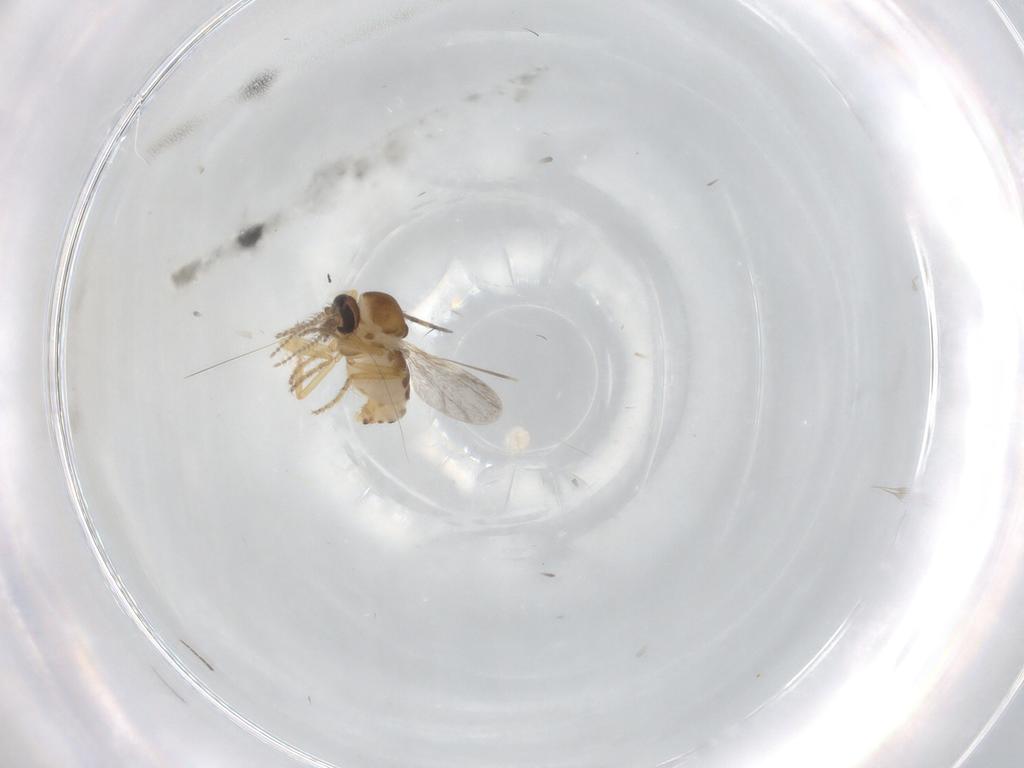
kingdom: Animalia
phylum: Arthropoda
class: Insecta
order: Diptera
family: Ceratopogonidae
